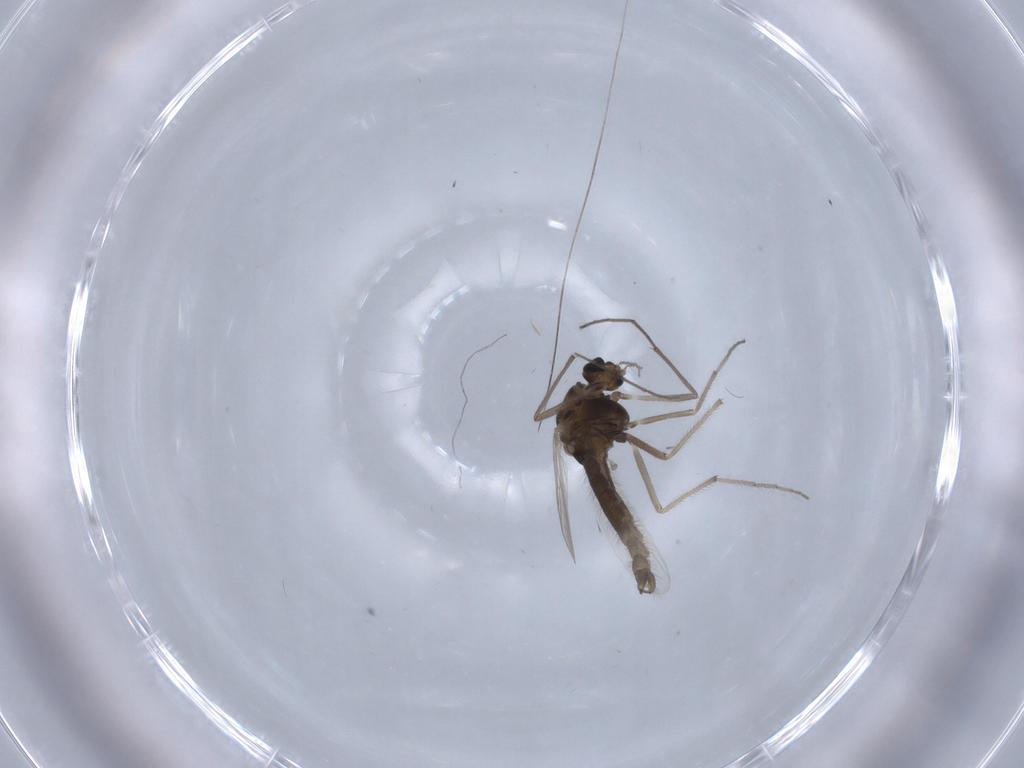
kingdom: Animalia
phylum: Arthropoda
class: Insecta
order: Diptera
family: Chironomidae
